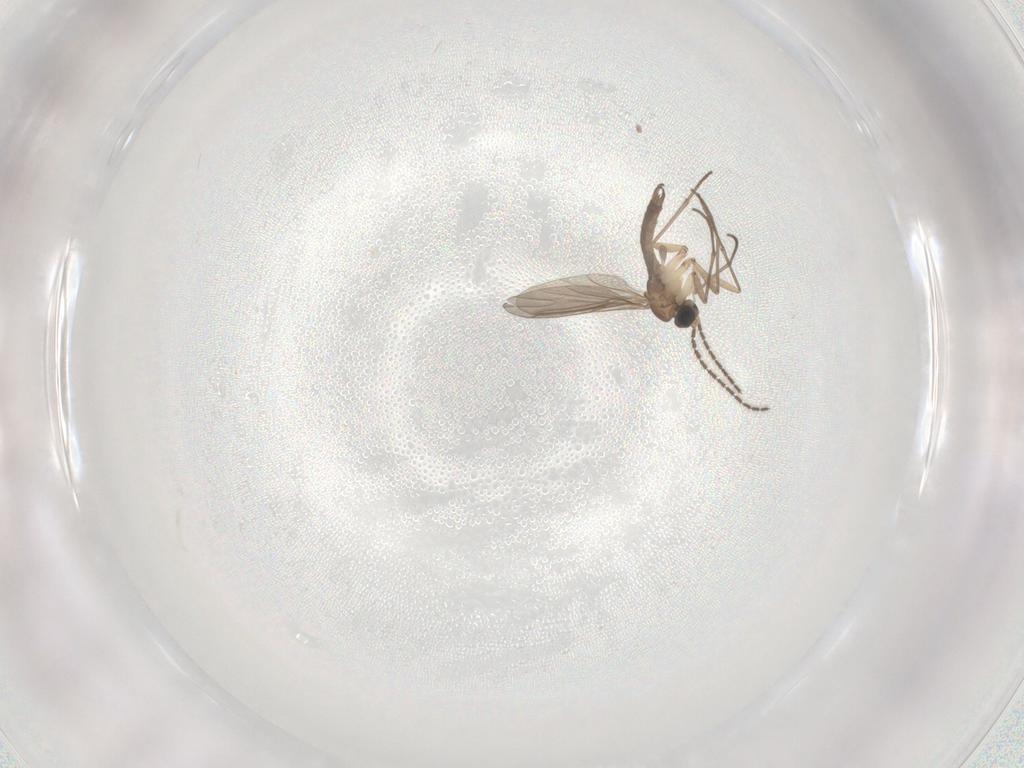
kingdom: Animalia
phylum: Arthropoda
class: Insecta
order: Diptera
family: Sciaridae
